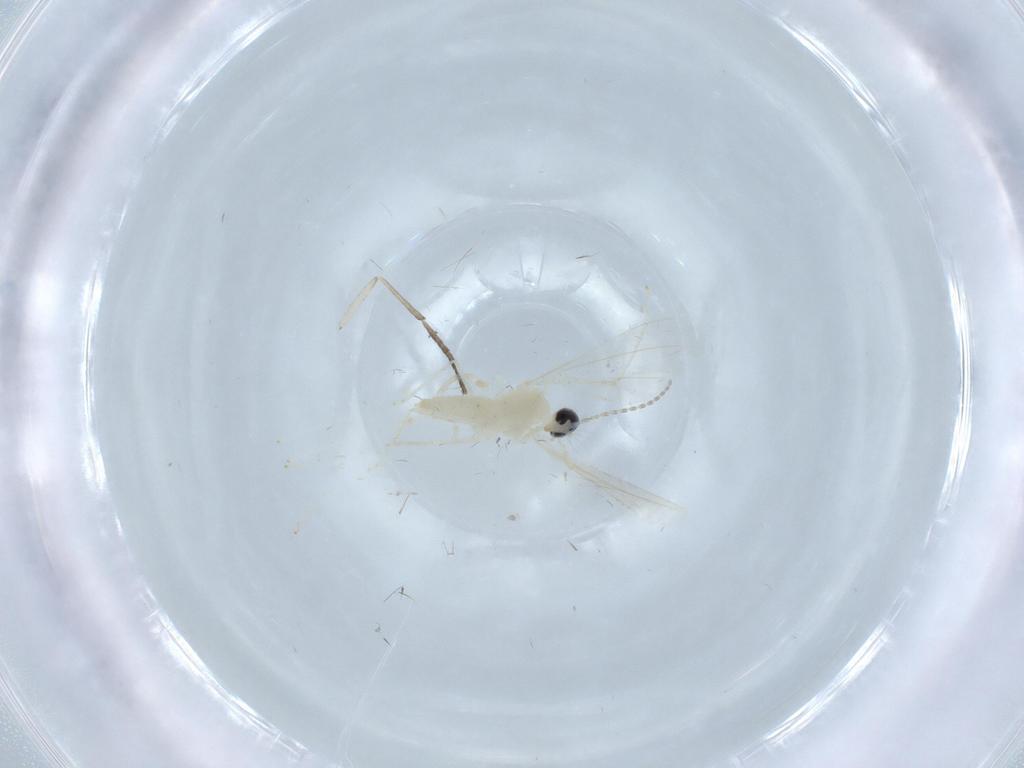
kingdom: Animalia
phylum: Arthropoda
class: Insecta
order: Diptera
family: Cecidomyiidae
